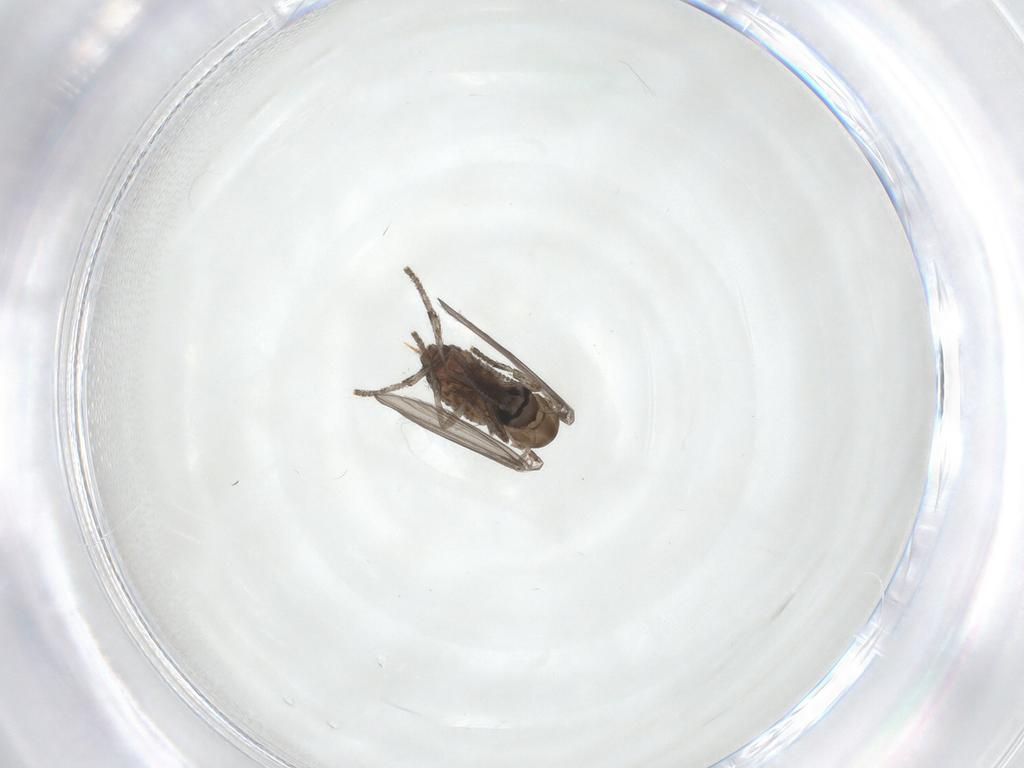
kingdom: Animalia
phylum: Arthropoda
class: Insecta
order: Diptera
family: Psychodidae
